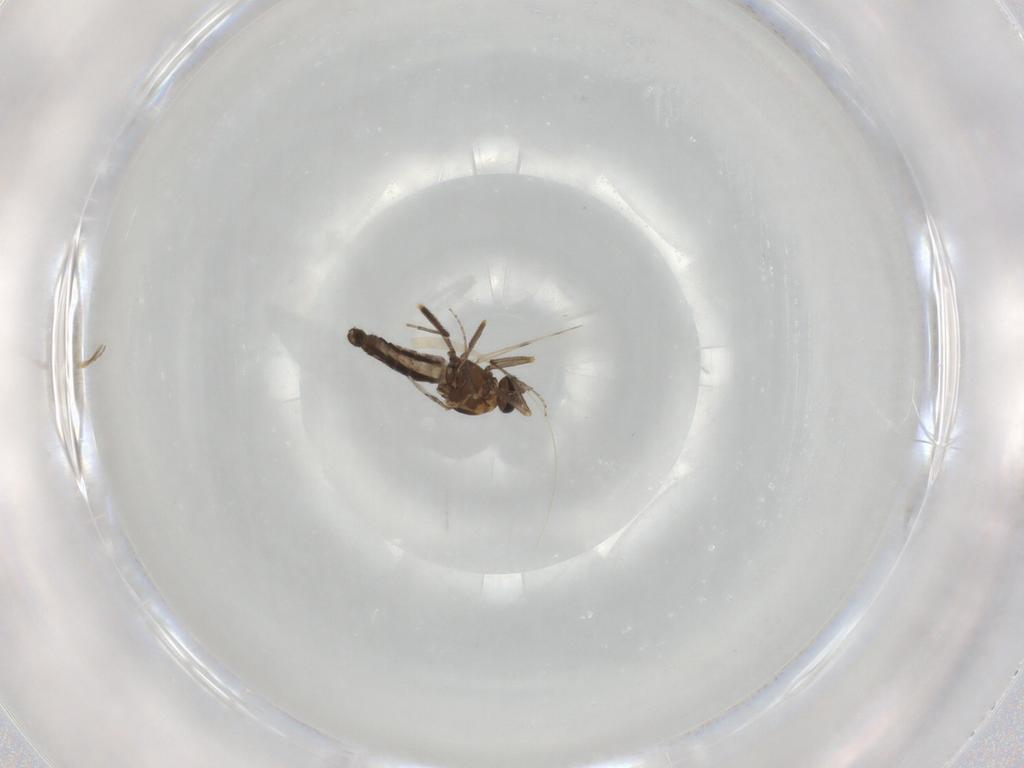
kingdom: Animalia
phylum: Arthropoda
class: Insecta
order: Diptera
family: Ceratopogonidae
